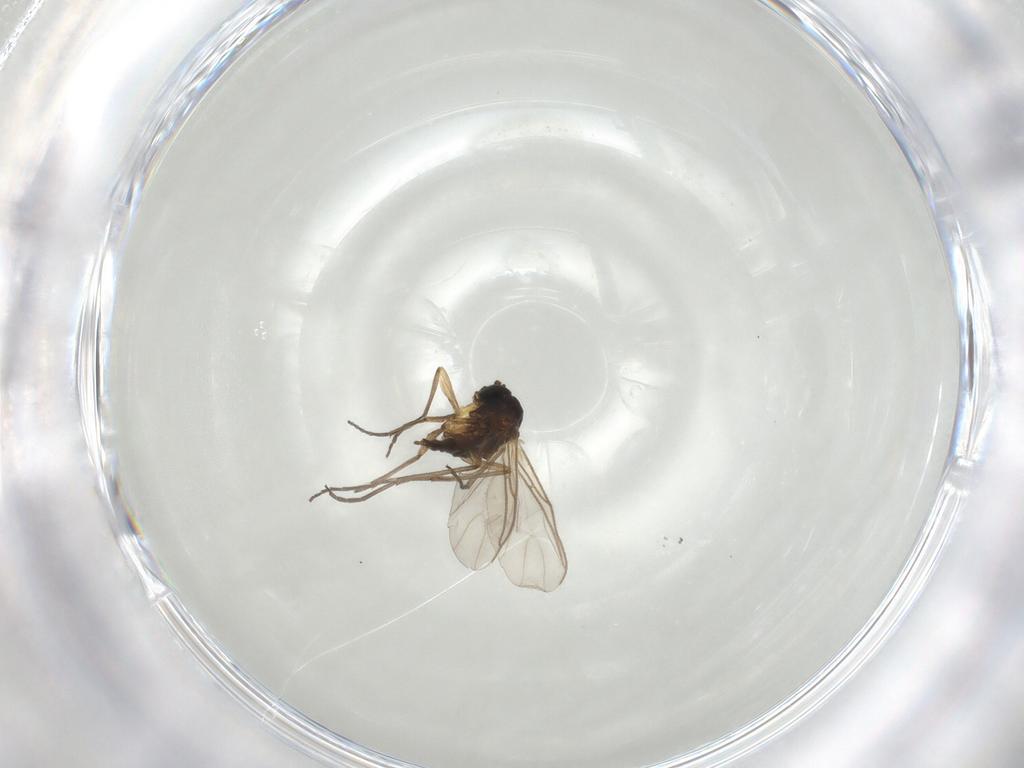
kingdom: Animalia
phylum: Arthropoda
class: Insecta
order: Diptera
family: Sciaridae
